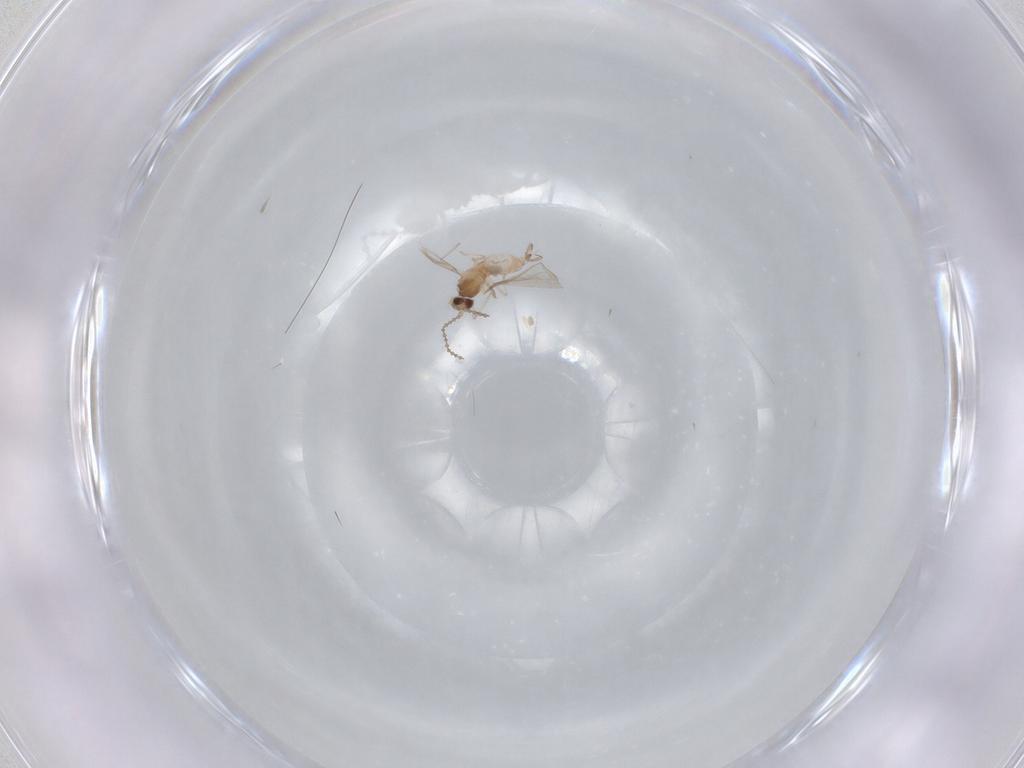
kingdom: Animalia
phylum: Arthropoda
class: Insecta
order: Diptera
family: Cecidomyiidae
